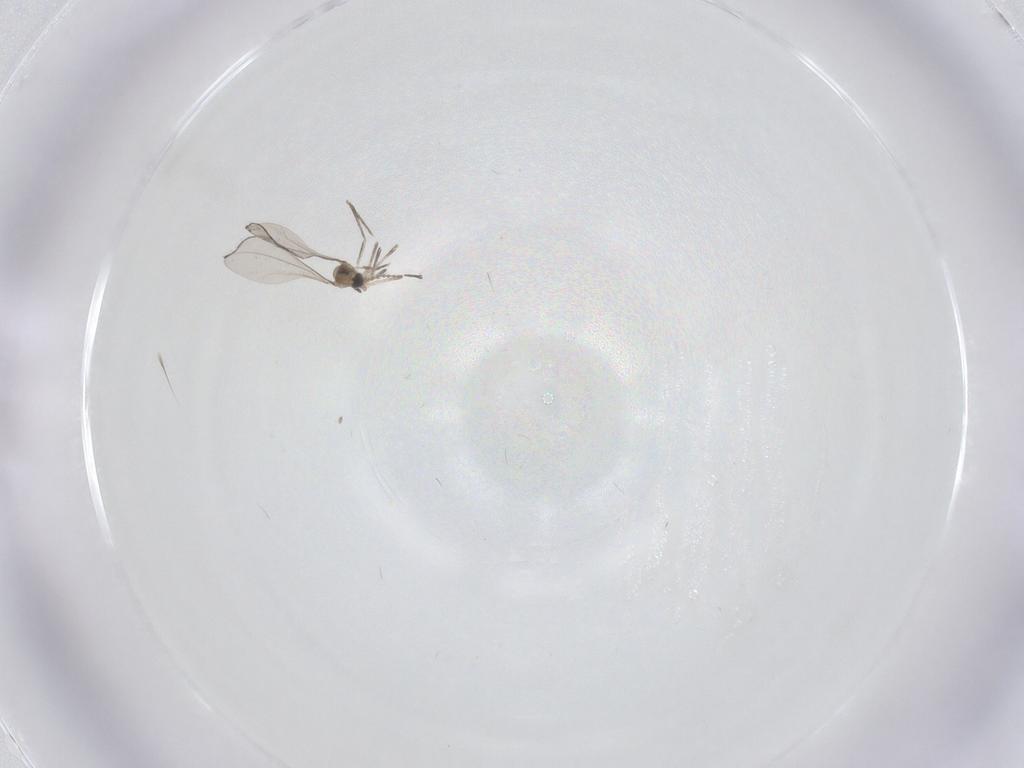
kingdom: Animalia
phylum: Arthropoda
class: Insecta
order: Diptera
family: Cecidomyiidae
